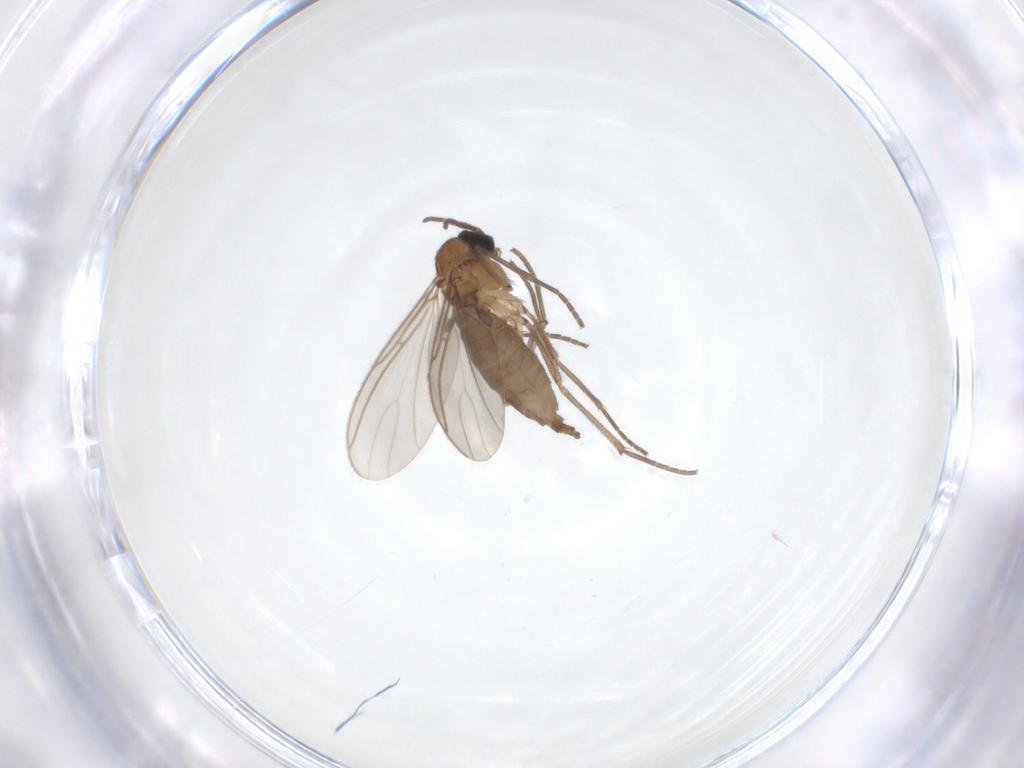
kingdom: Animalia
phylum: Arthropoda
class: Insecta
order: Diptera
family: Sciaridae
